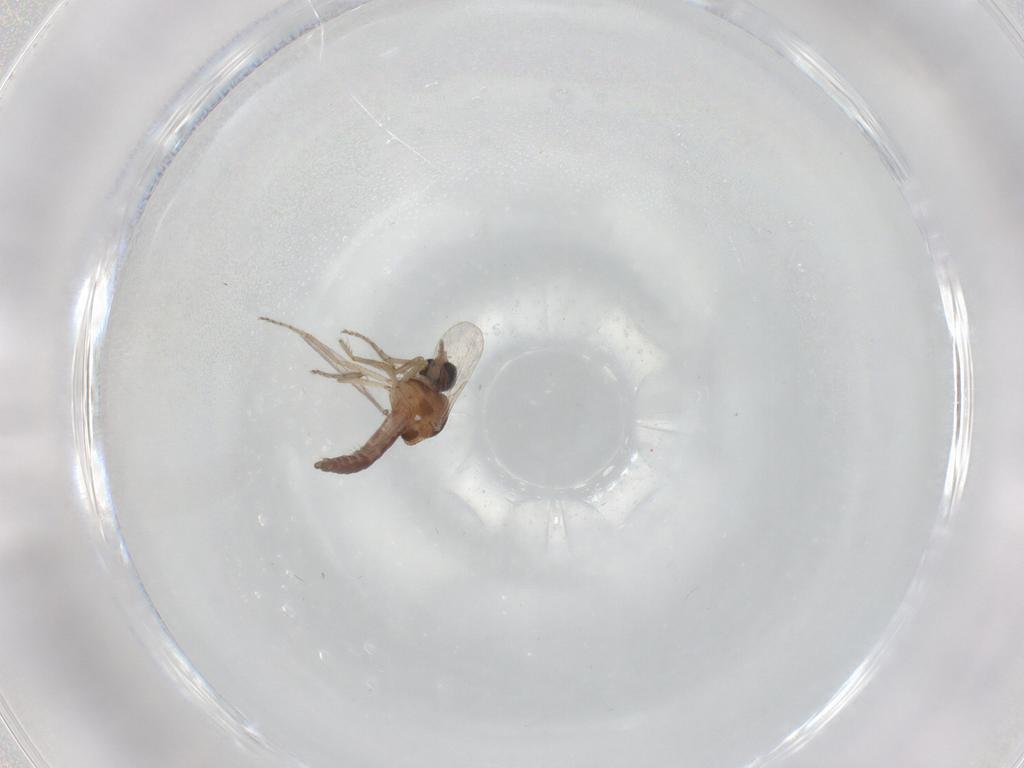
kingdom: Animalia
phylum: Arthropoda
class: Insecta
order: Diptera
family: Ceratopogonidae
